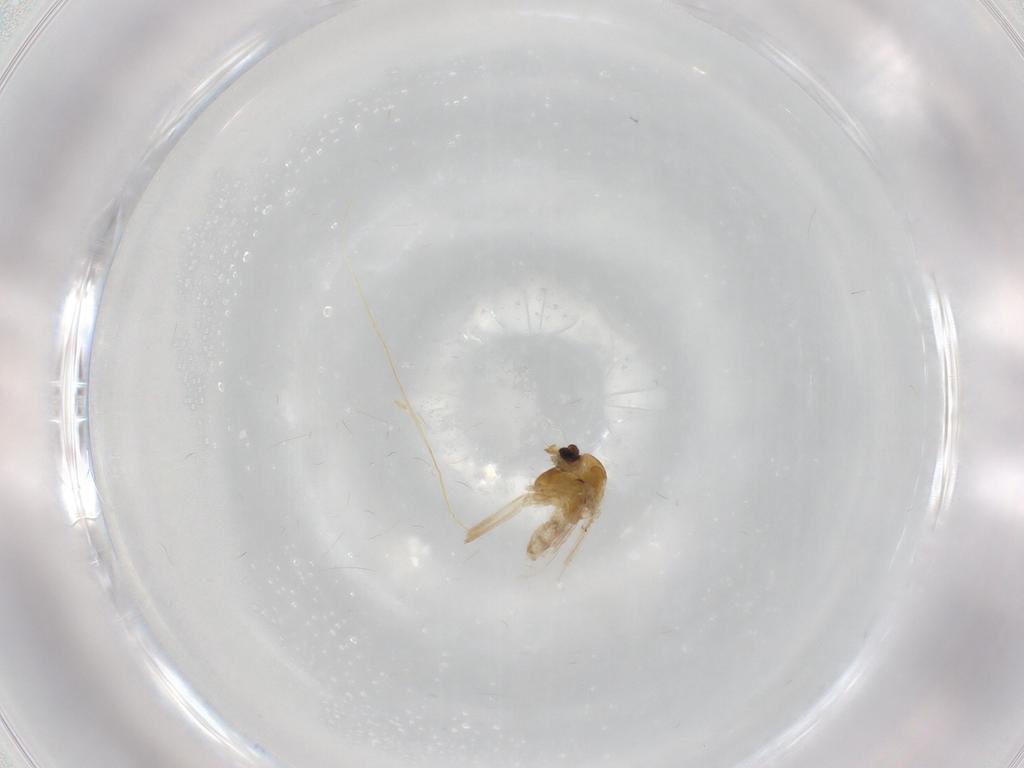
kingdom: Animalia
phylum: Arthropoda
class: Insecta
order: Diptera
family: Chironomidae
